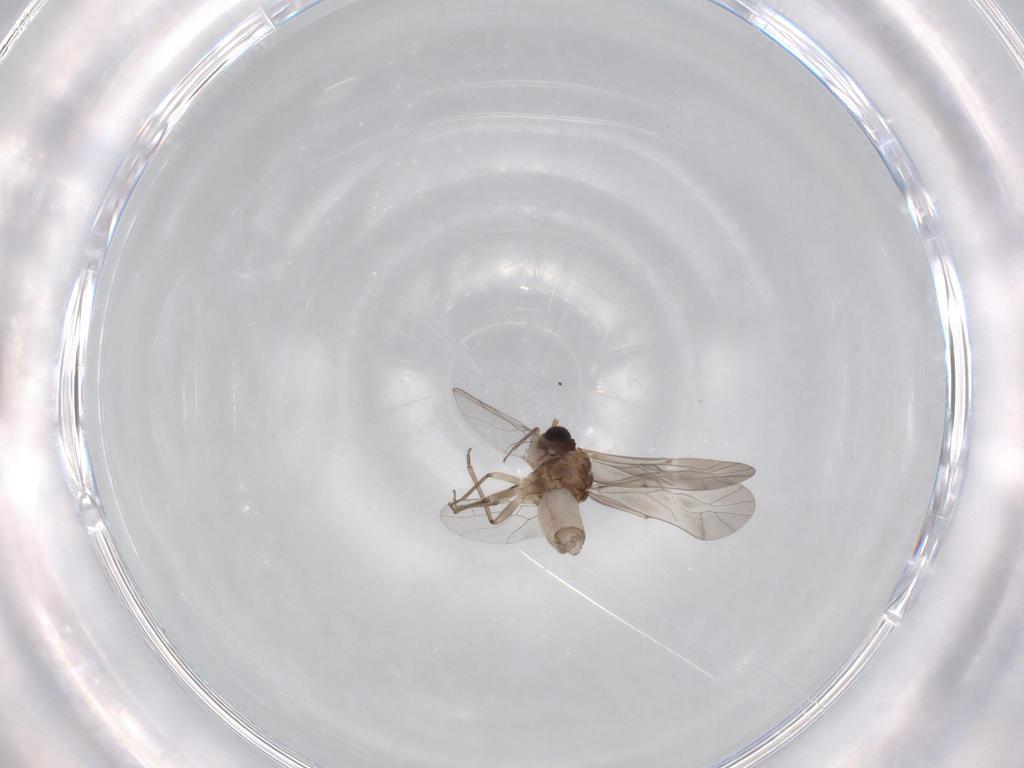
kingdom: Animalia
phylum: Arthropoda
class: Insecta
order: Psocodea
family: Lachesillidae
